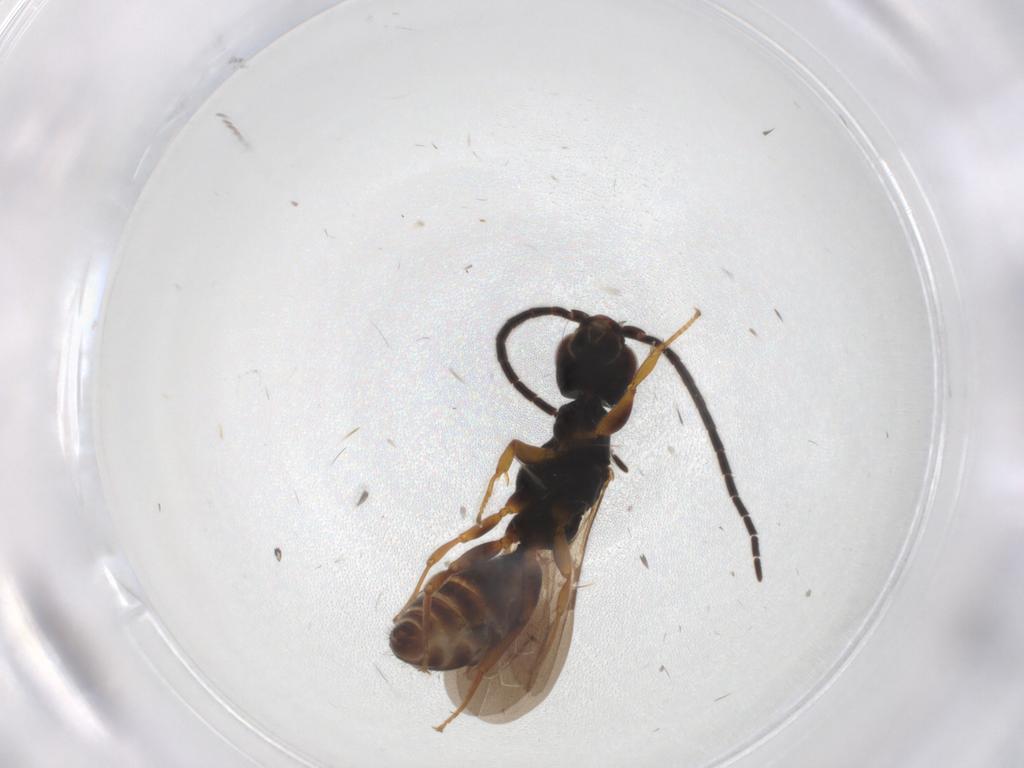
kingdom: Animalia
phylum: Arthropoda
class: Insecta
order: Hymenoptera
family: Bethylidae
